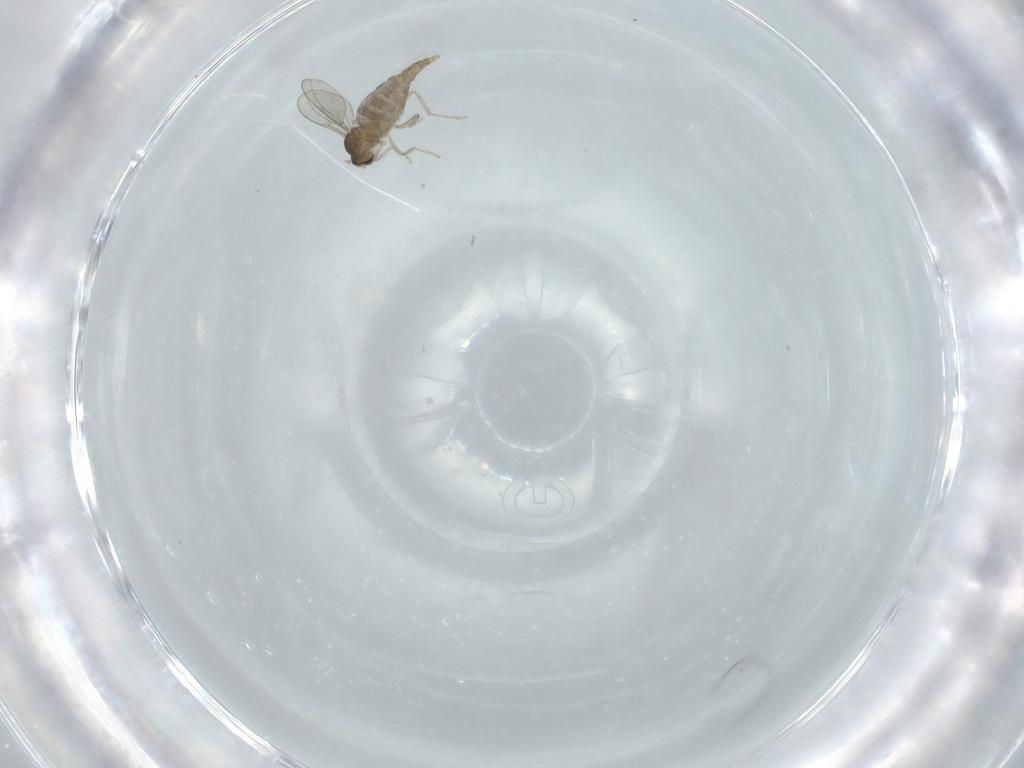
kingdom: Animalia
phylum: Arthropoda
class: Insecta
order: Diptera
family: Cecidomyiidae
